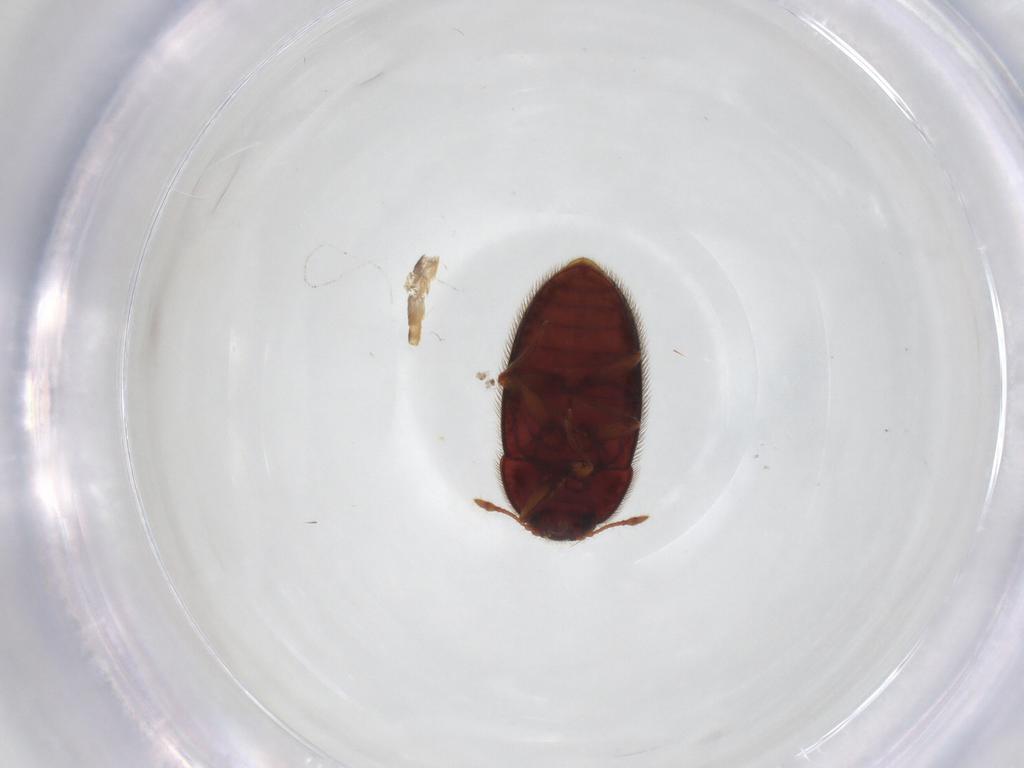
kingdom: Animalia
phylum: Arthropoda
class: Insecta
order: Coleoptera
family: Biphyllidae
